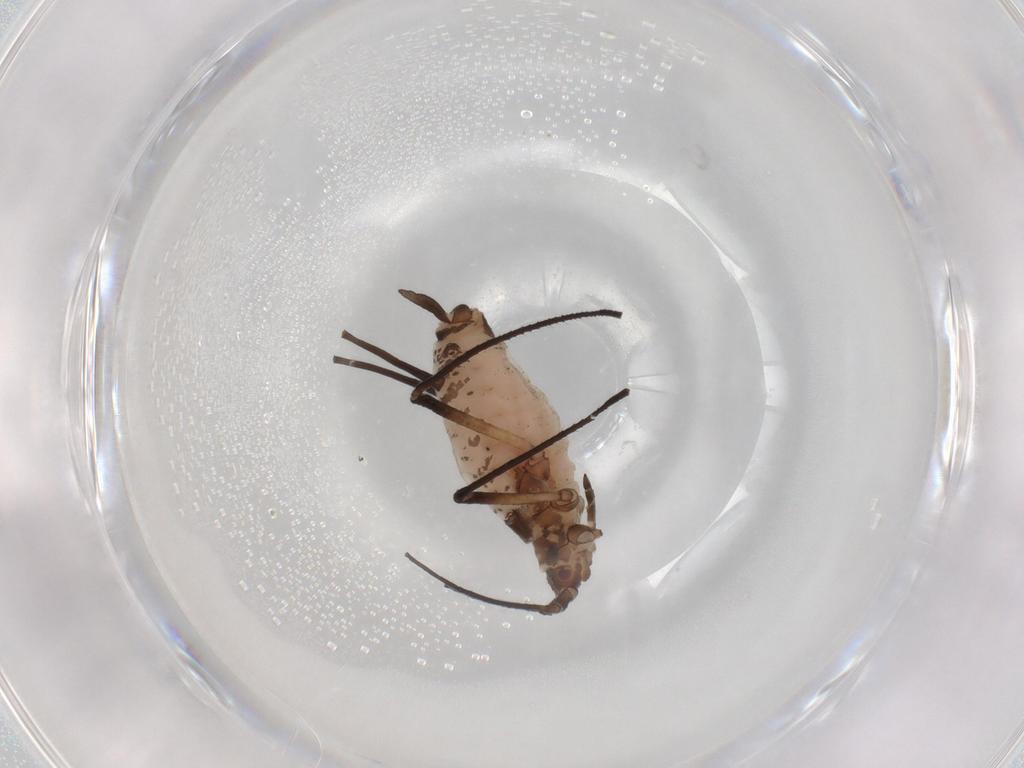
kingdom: Animalia
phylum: Arthropoda
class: Insecta
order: Hemiptera
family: Aphididae
